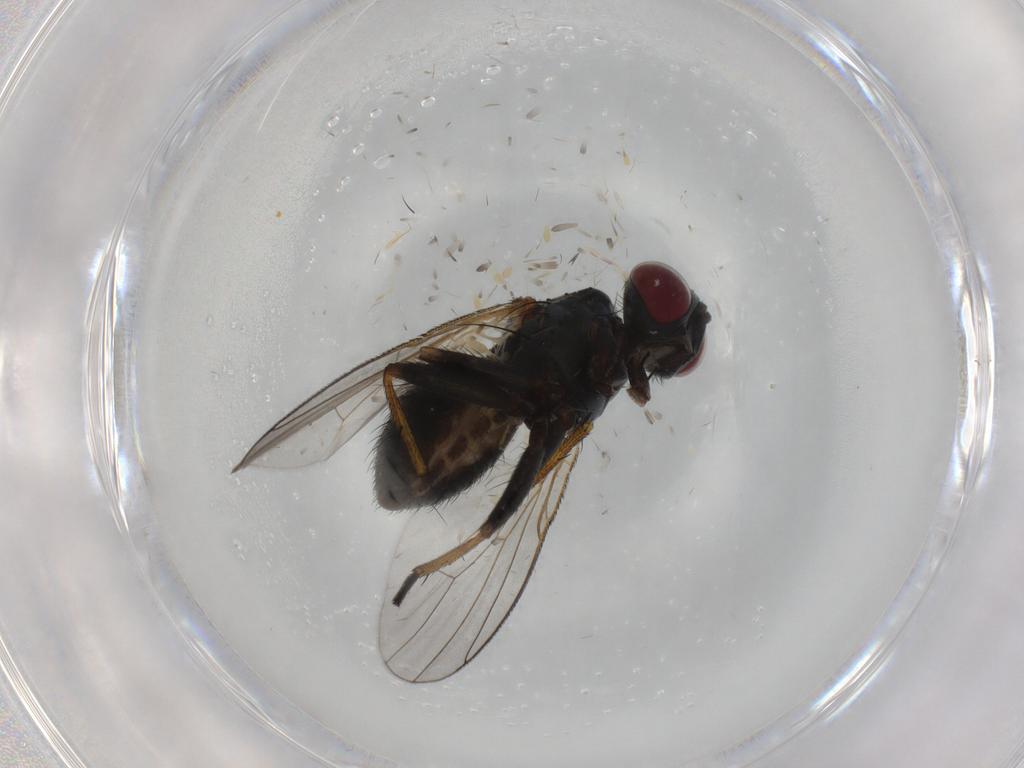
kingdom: Animalia
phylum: Arthropoda
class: Insecta
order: Diptera
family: Muscidae
